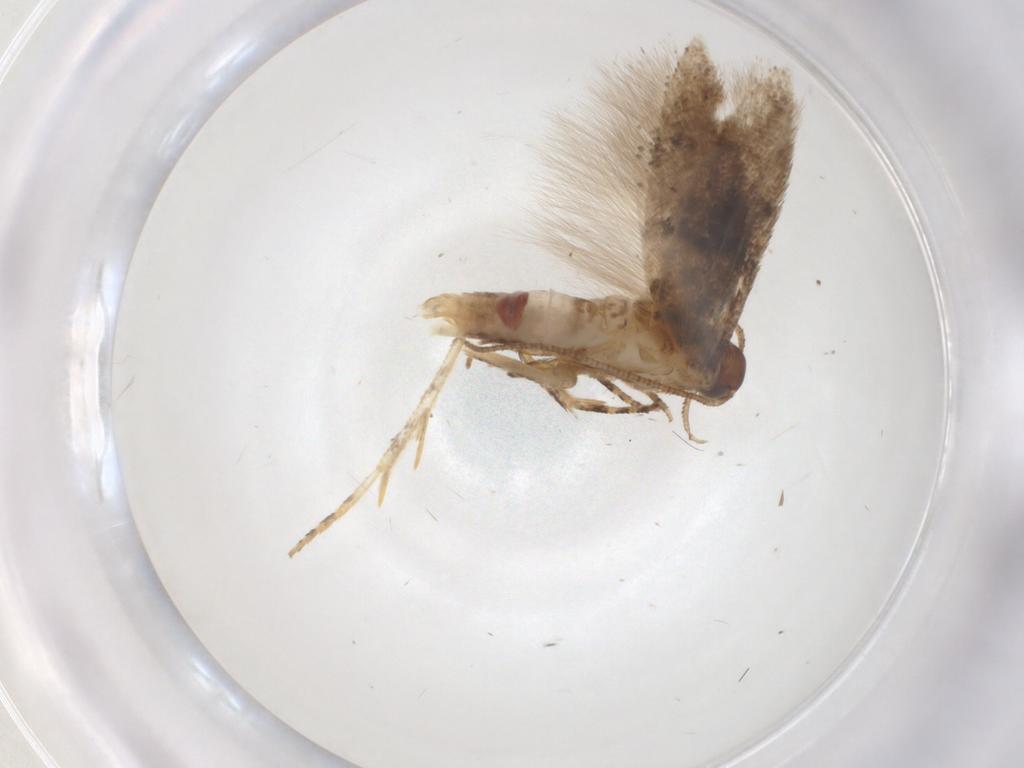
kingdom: Animalia
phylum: Arthropoda
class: Insecta
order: Lepidoptera
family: Gelechiidae
